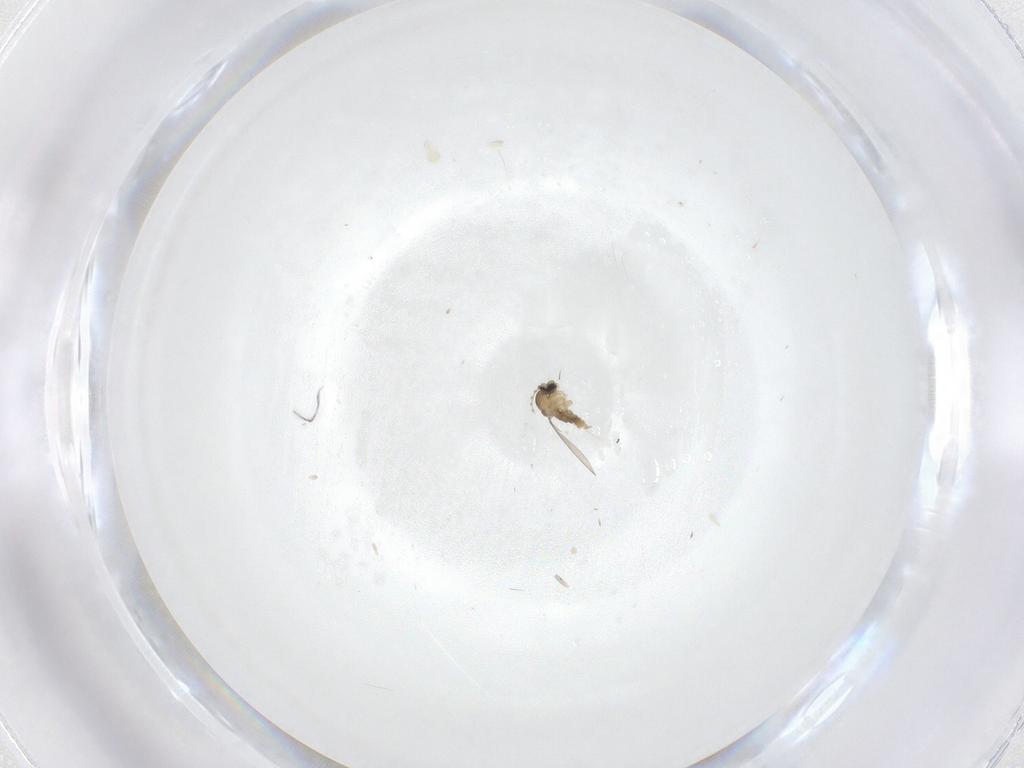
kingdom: Animalia
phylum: Arthropoda
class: Insecta
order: Diptera
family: Cecidomyiidae
